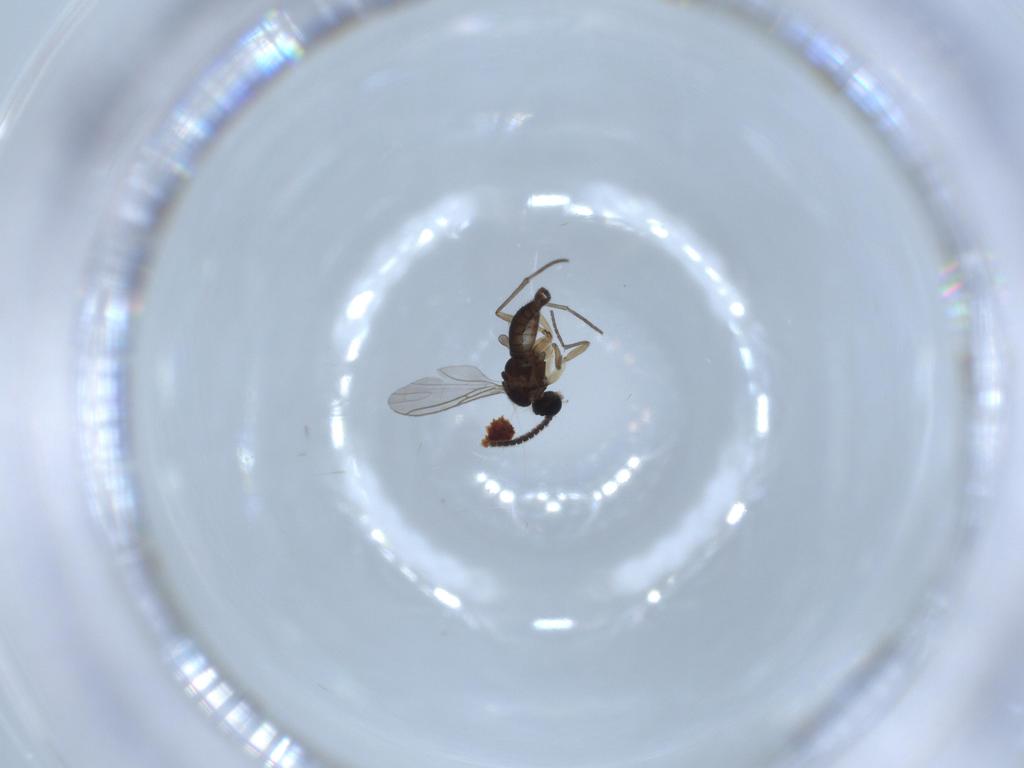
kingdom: Animalia
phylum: Arthropoda
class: Insecta
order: Diptera
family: Sciaridae
